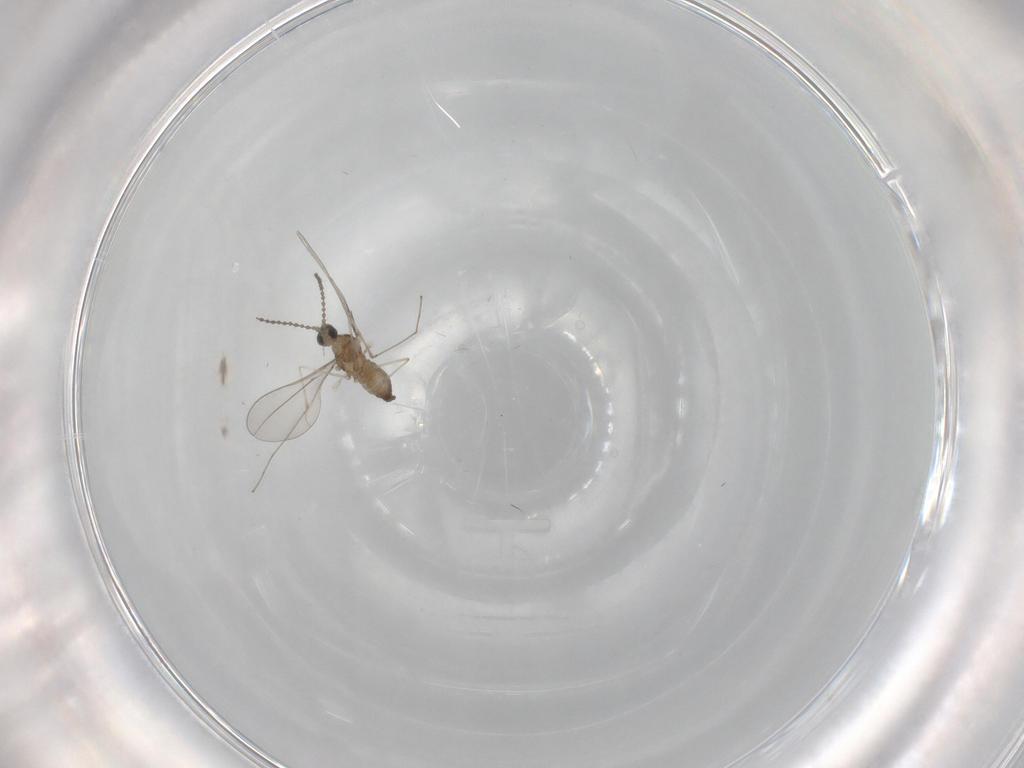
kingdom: Animalia
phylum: Arthropoda
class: Insecta
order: Diptera
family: Cecidomyiidae
